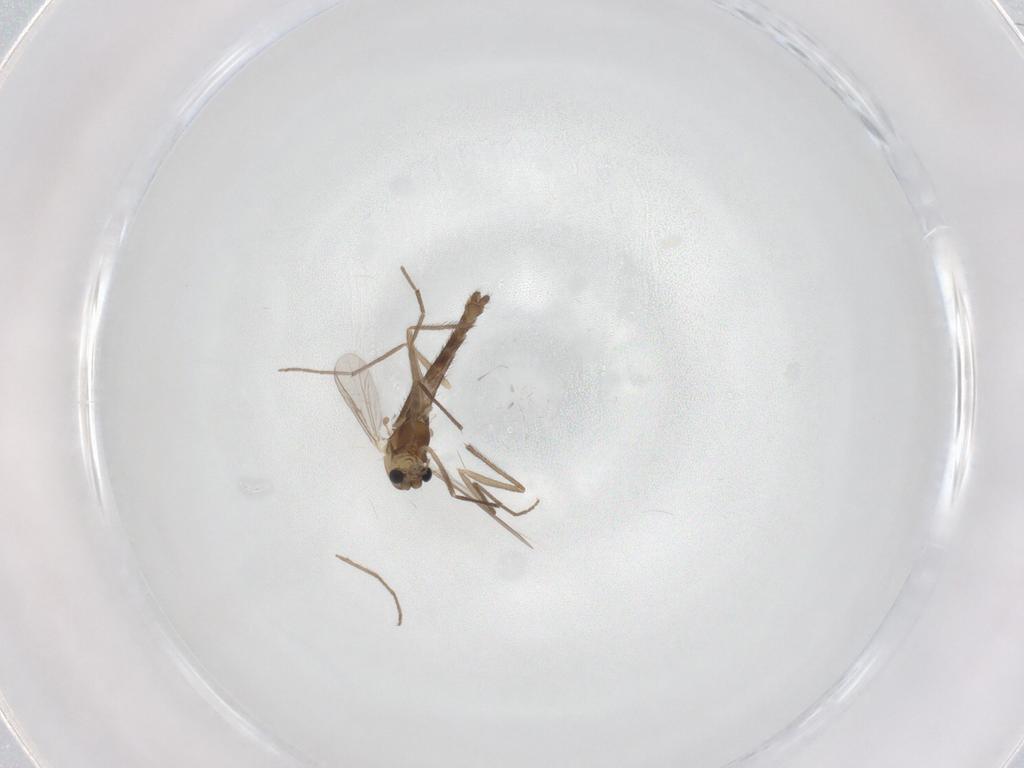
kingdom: Animalia
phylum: Arthropoda
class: Insecta
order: Diptera
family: Chironomidae
